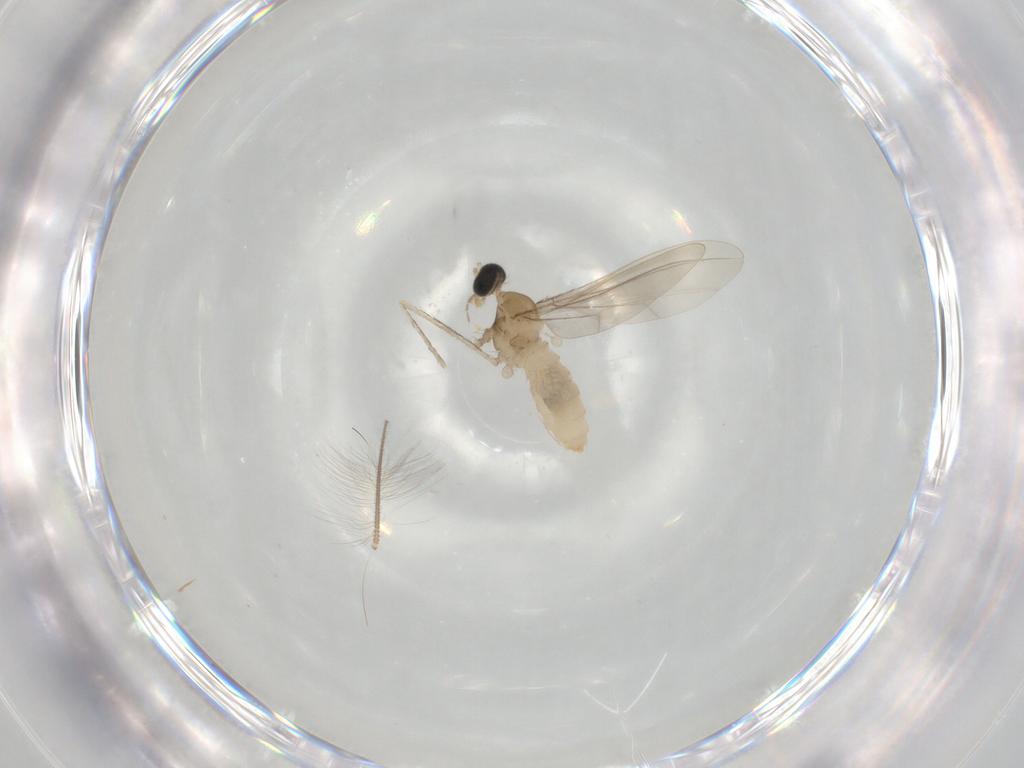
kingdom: Animalia
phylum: Arthropoda
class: Insecta
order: Diptera
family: Cecidomyiidae
